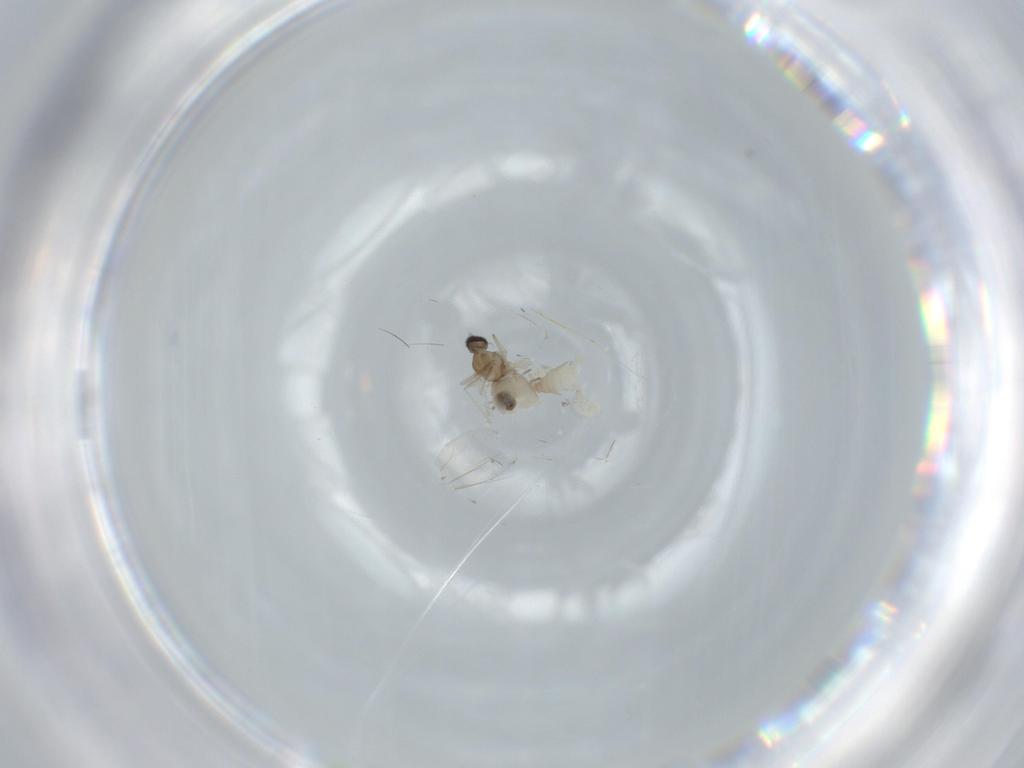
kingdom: Animalia
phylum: Arthropoda
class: Insecta
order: Diptera
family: Cecidomyiidae
